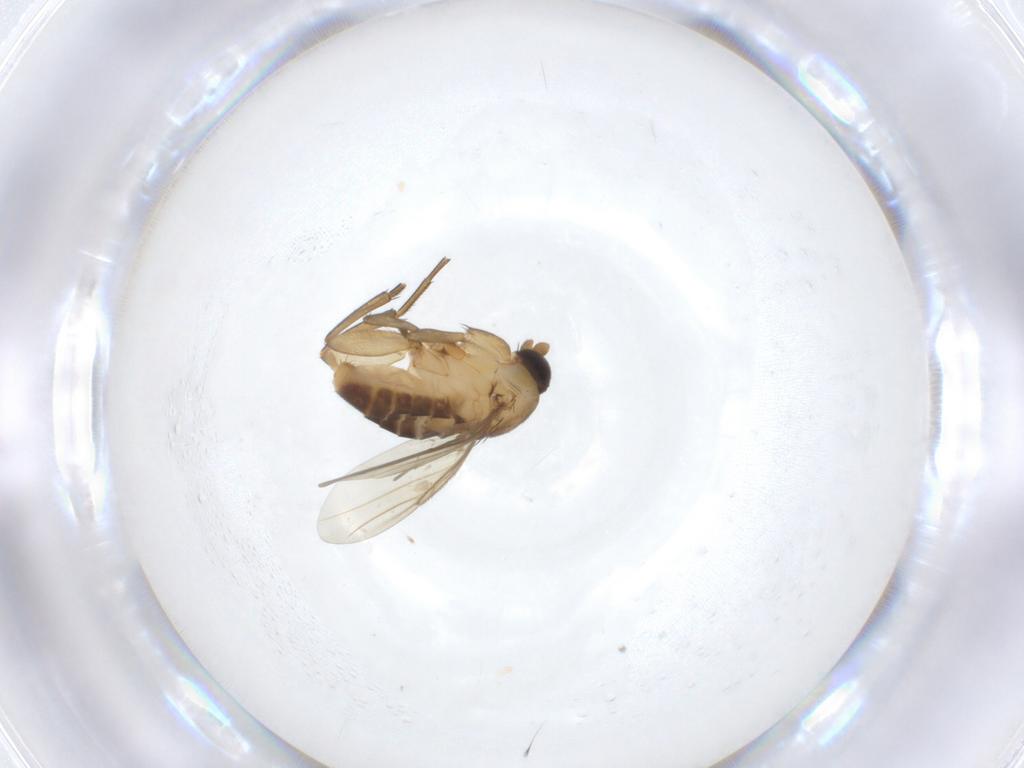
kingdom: Animalia
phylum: Arthropoda
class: Insecta
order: Diptera
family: Phoridae
